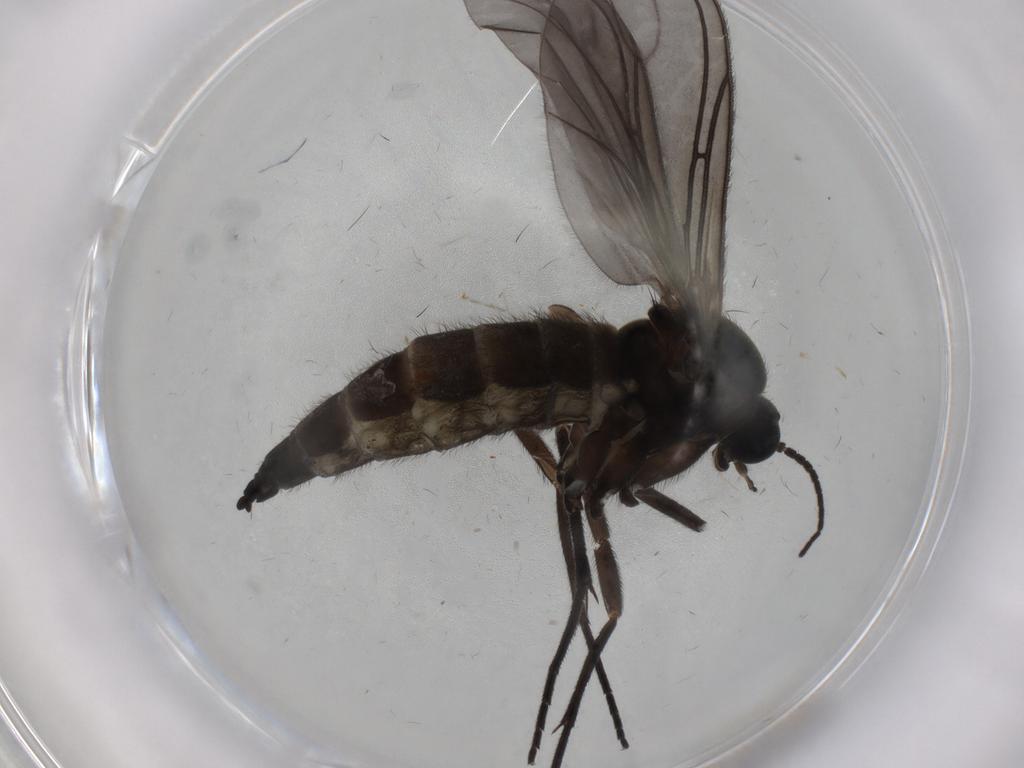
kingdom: Animalia
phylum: Arthropoda
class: Insecta
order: Diptera
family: Sciaridae
